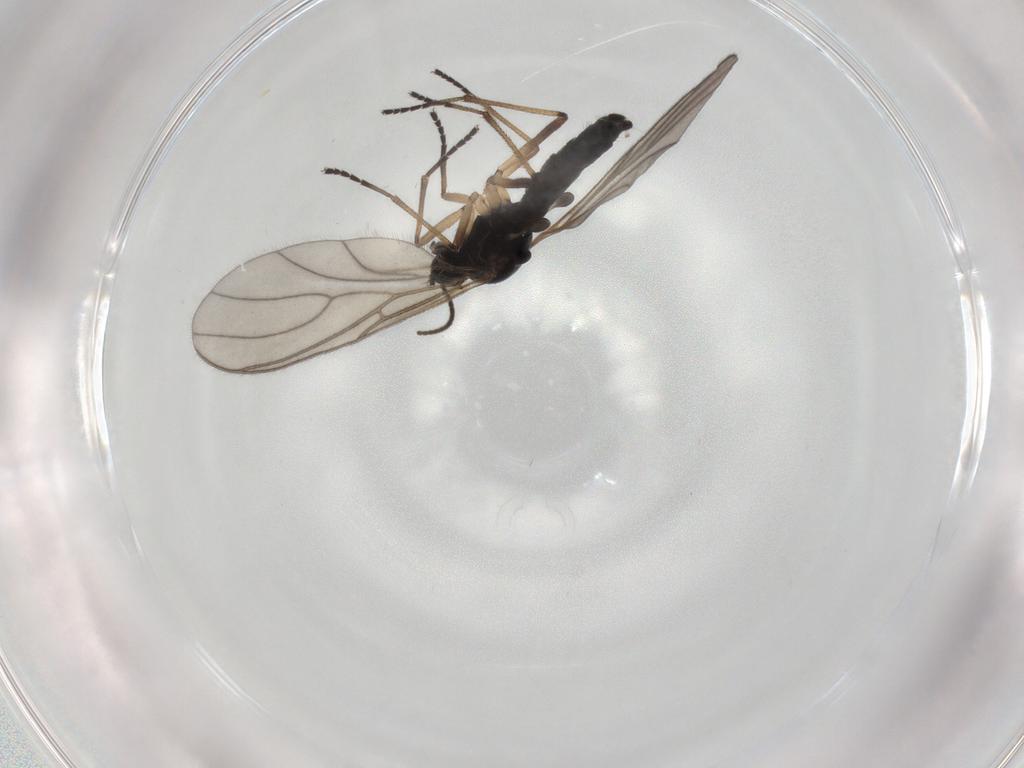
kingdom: Animalia
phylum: Arthropoda
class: Insecta
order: Diptera
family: Sciaridae
